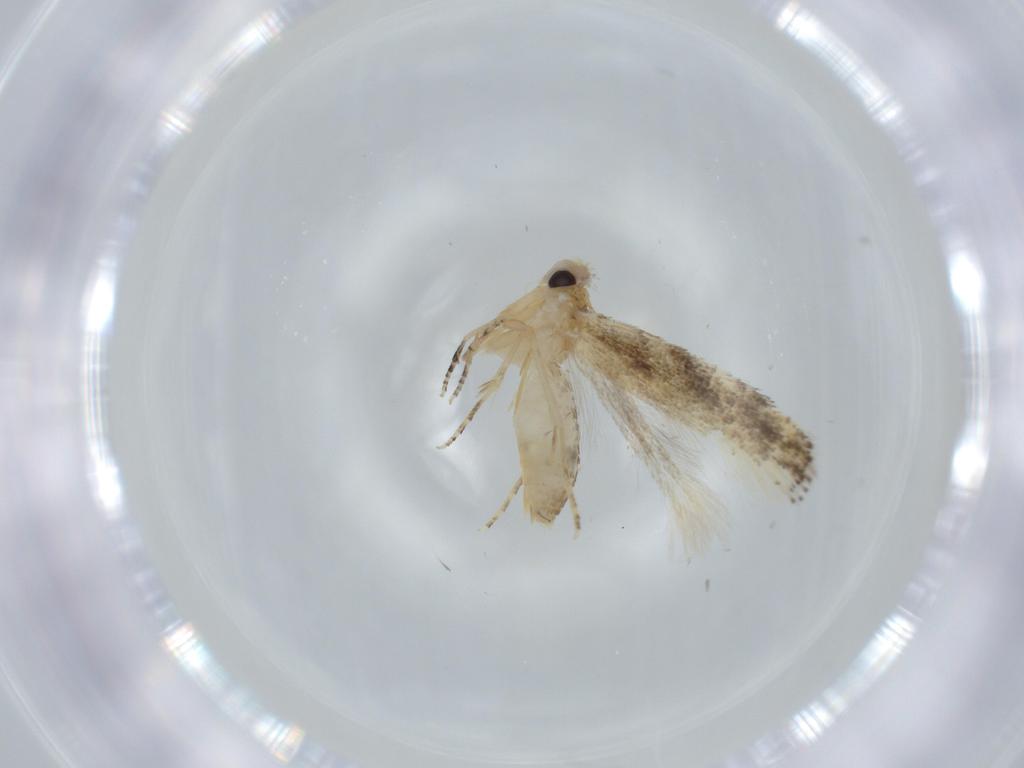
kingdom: Animalia
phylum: Arthropoda
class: Insecta
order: Lepidoptera
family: Bucculatricidae
